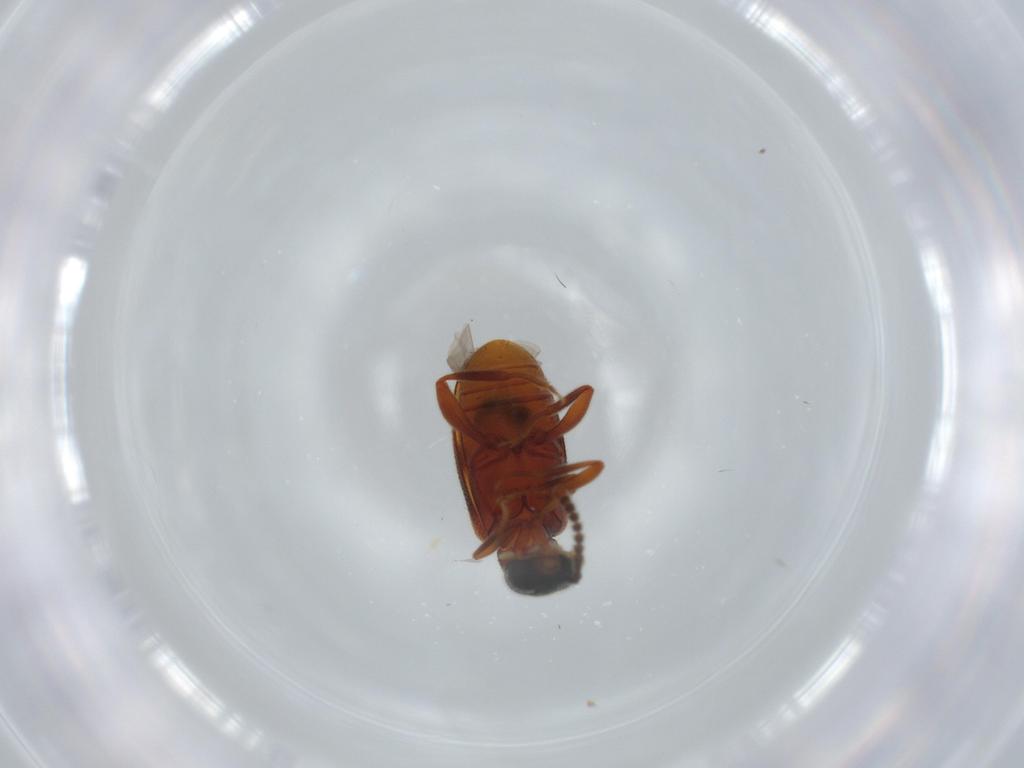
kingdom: Animalia
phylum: Arthropoda
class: Insecta
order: Coleoptera
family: Aderidae
